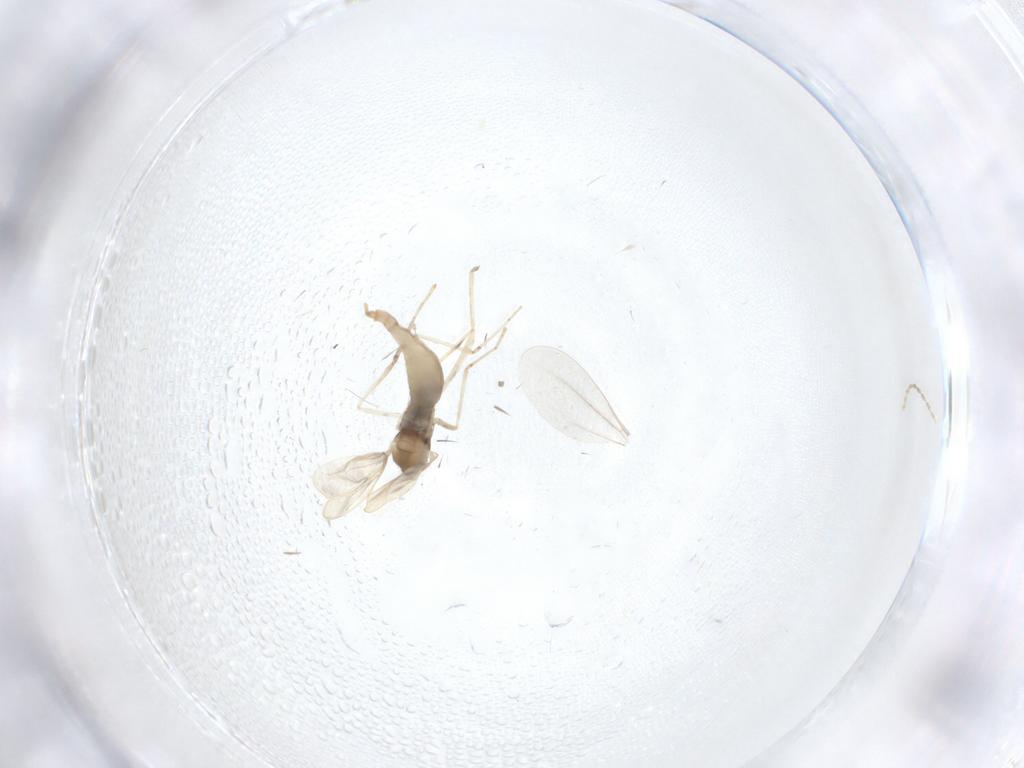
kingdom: Animalia
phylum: Arthropoda
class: Insecta
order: Diptera
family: Cecidomyiidae
